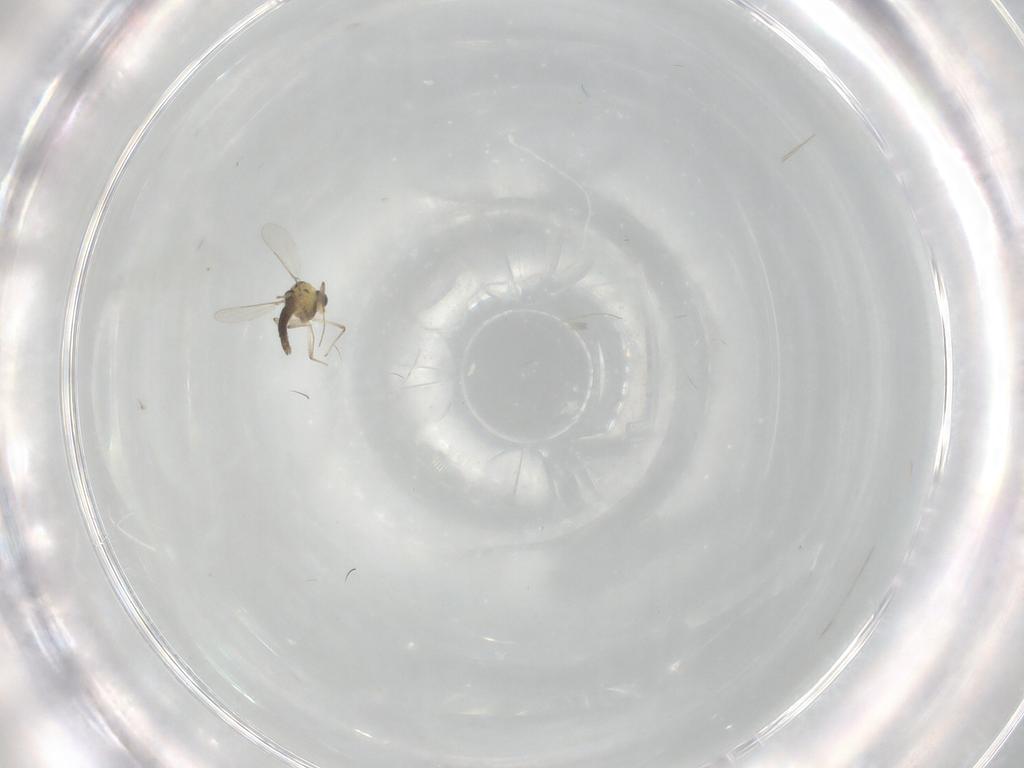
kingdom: Animalia
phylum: Arthropoda
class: Insecta
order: Diptera
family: Chironomidae
